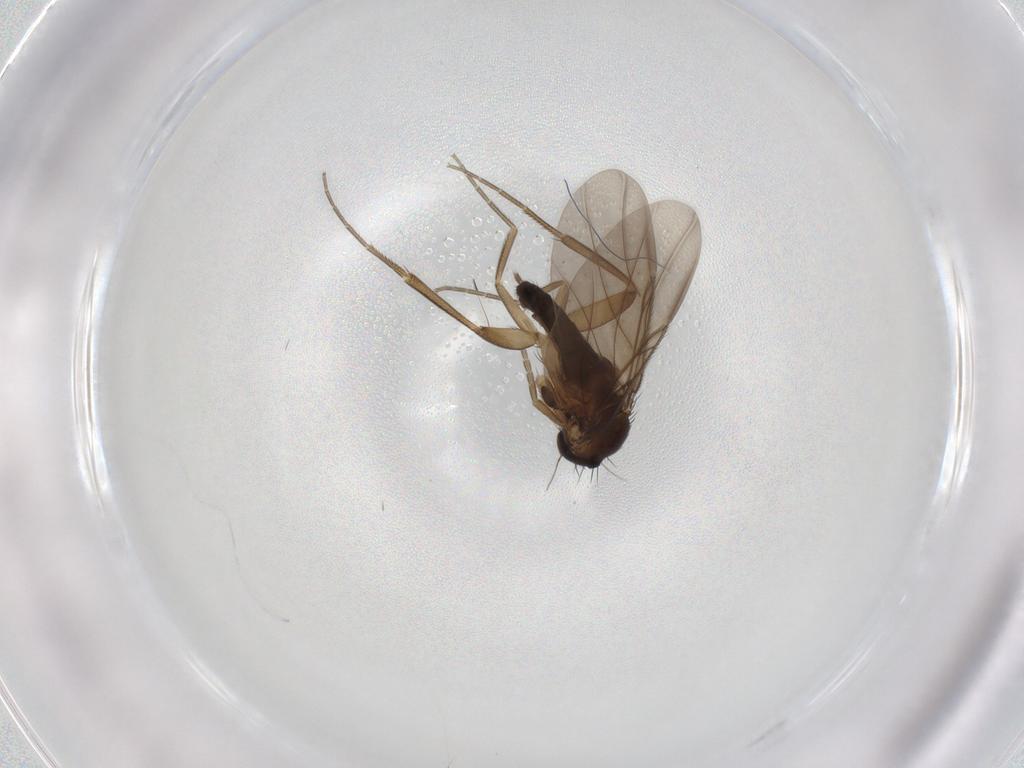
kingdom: Animalia
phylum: Arthropoda
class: Insecta
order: Diptera
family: Phoridae
